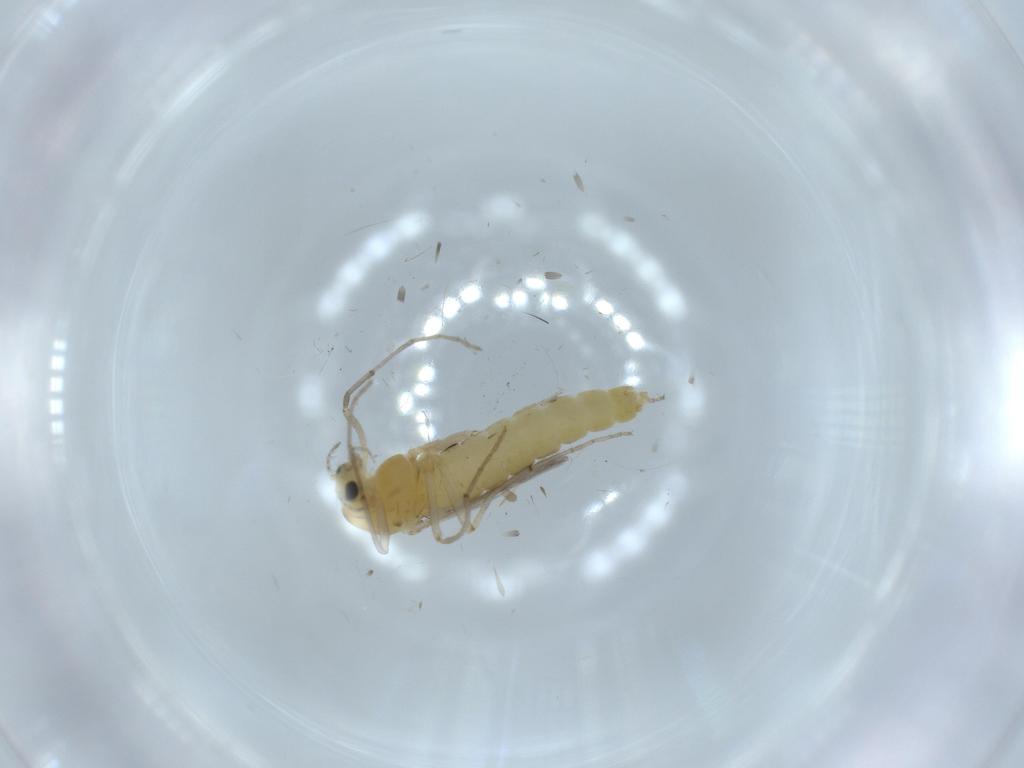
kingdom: Animalia
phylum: Arthropoda
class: Insecta
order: Diptera
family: Chironomidae
